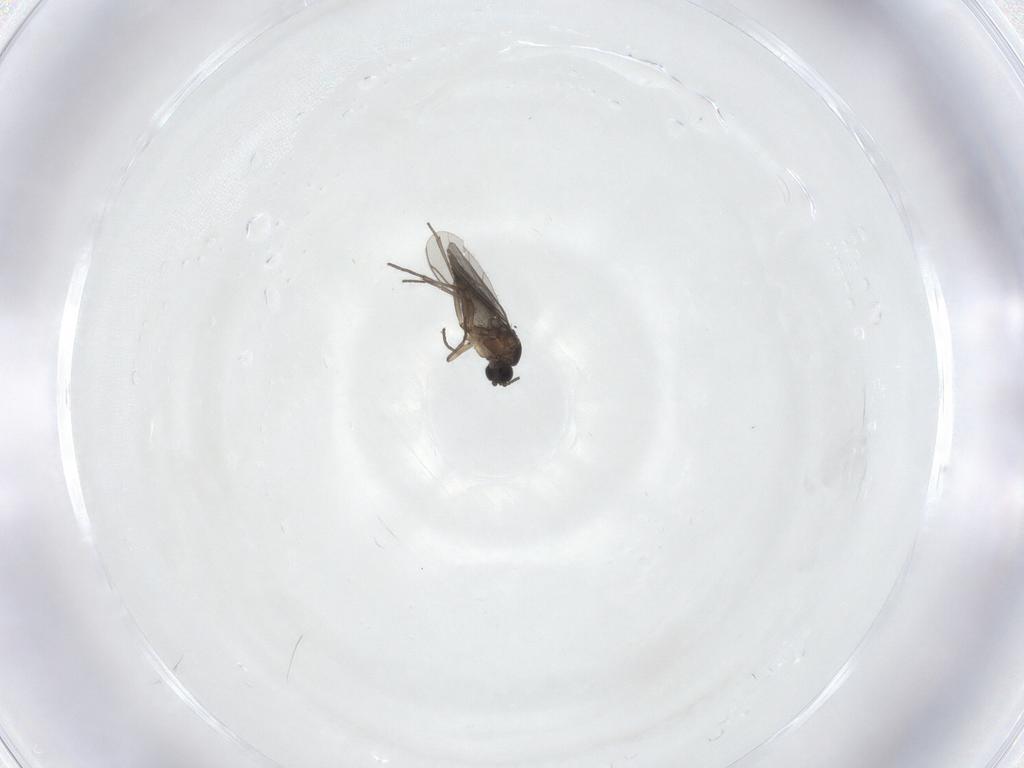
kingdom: Animalia
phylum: Arthropoda
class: Insecta
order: Diptera
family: Sciaridae
